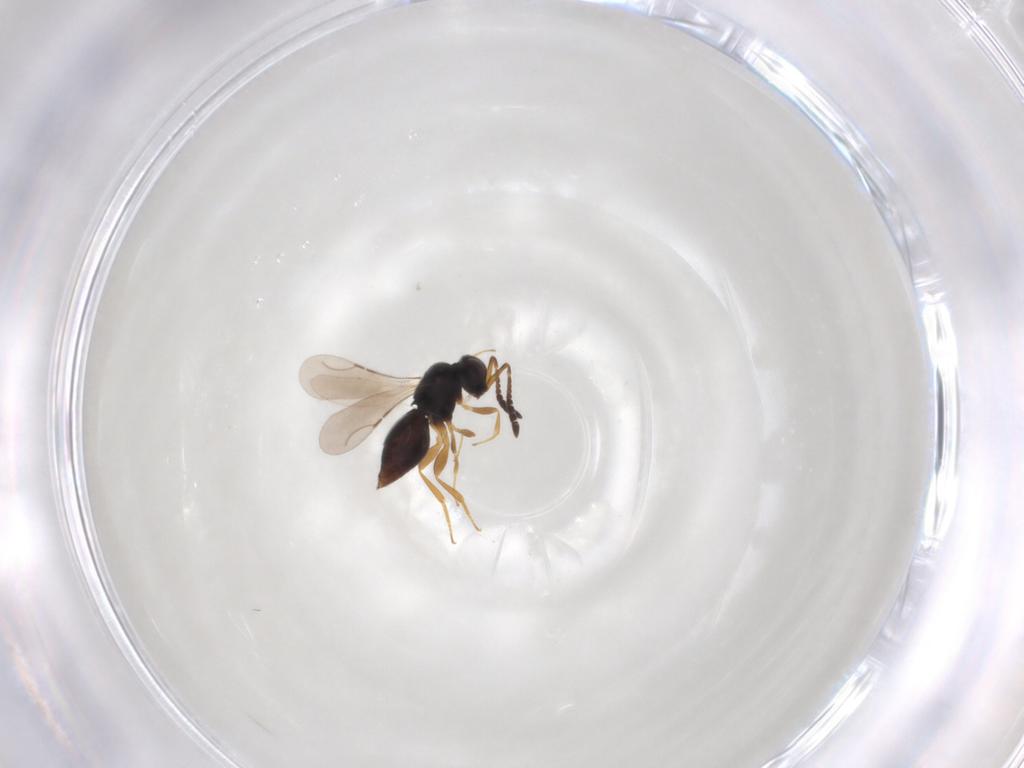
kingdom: Animalia
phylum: Arthropoda
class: Insecta
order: Hymenoptera
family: Ceraphronidae
